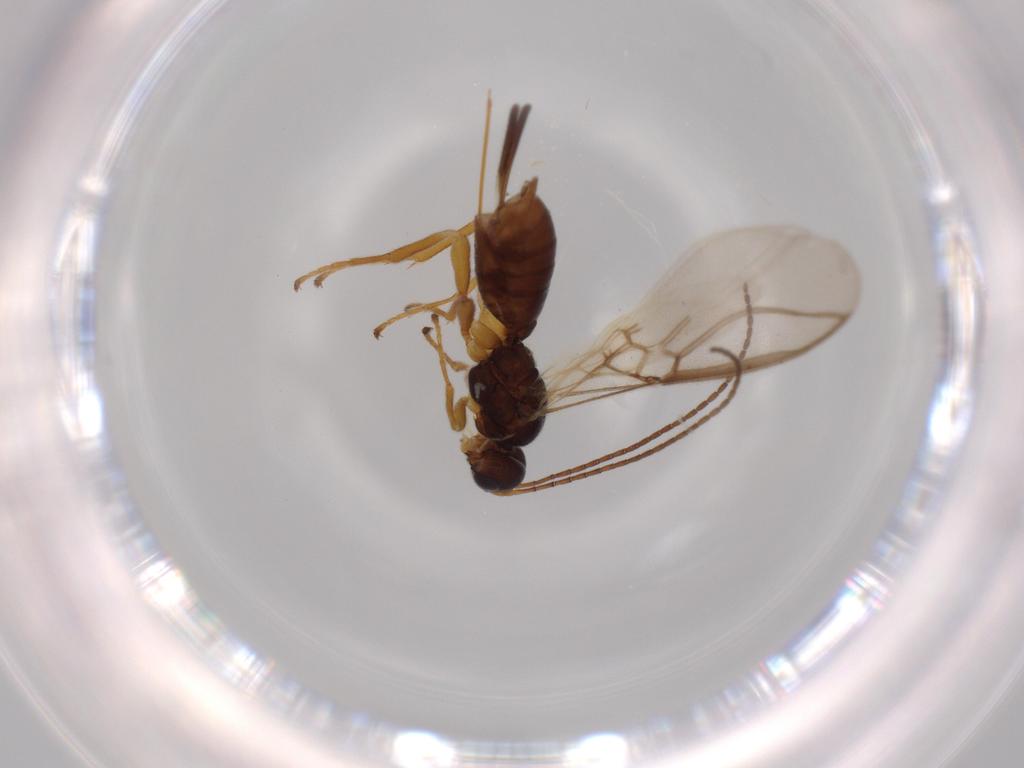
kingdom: Animalia
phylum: Arthropoda
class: Insecta
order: Hymenoptera
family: Braconidae
